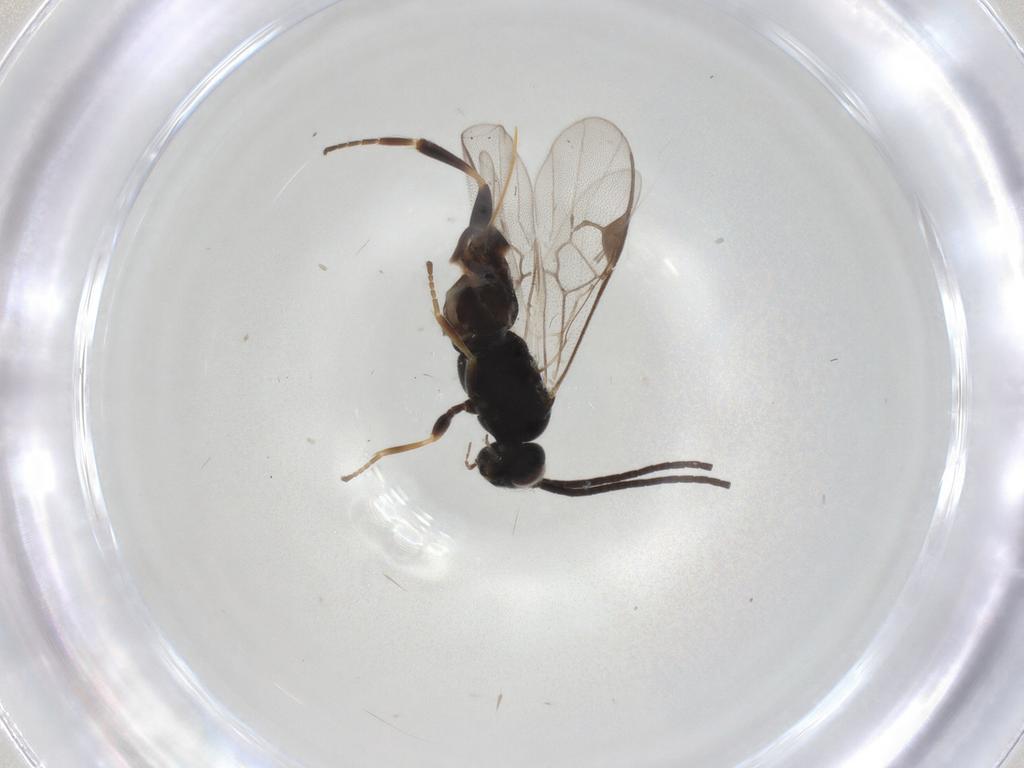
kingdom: Animalia
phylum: Arthropoda
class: Insecta
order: Hymenoptera
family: Braconidae
